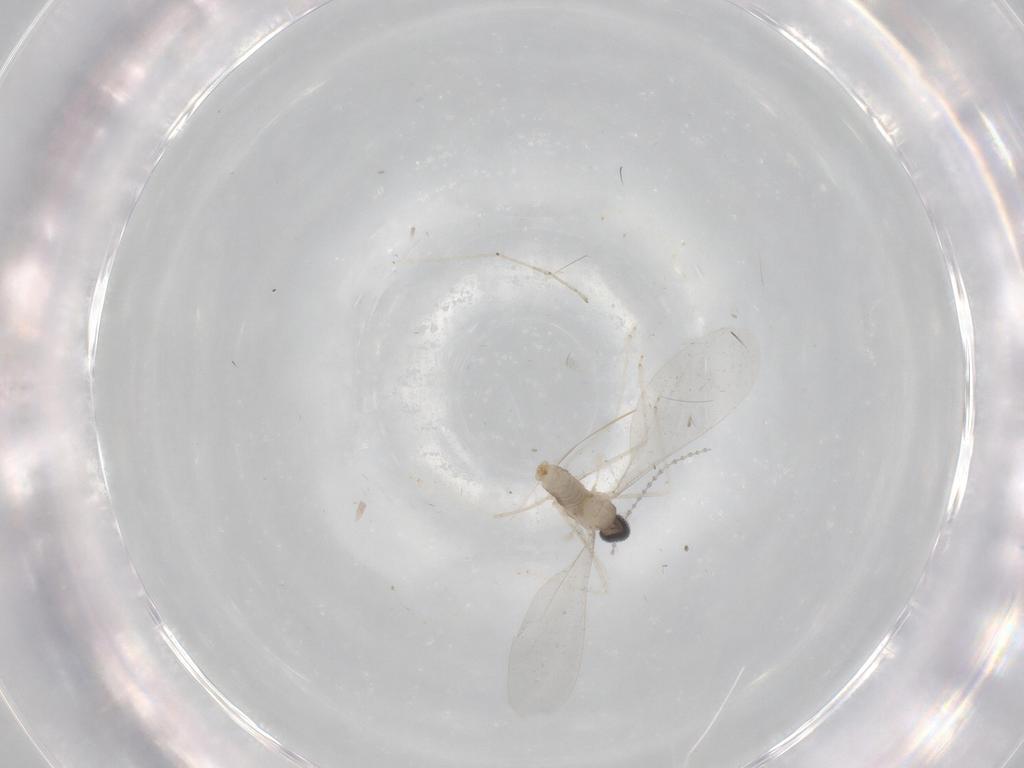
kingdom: Animalia
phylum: Arthropoda
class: Insecta
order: Diptera
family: Cecidomyiidae
